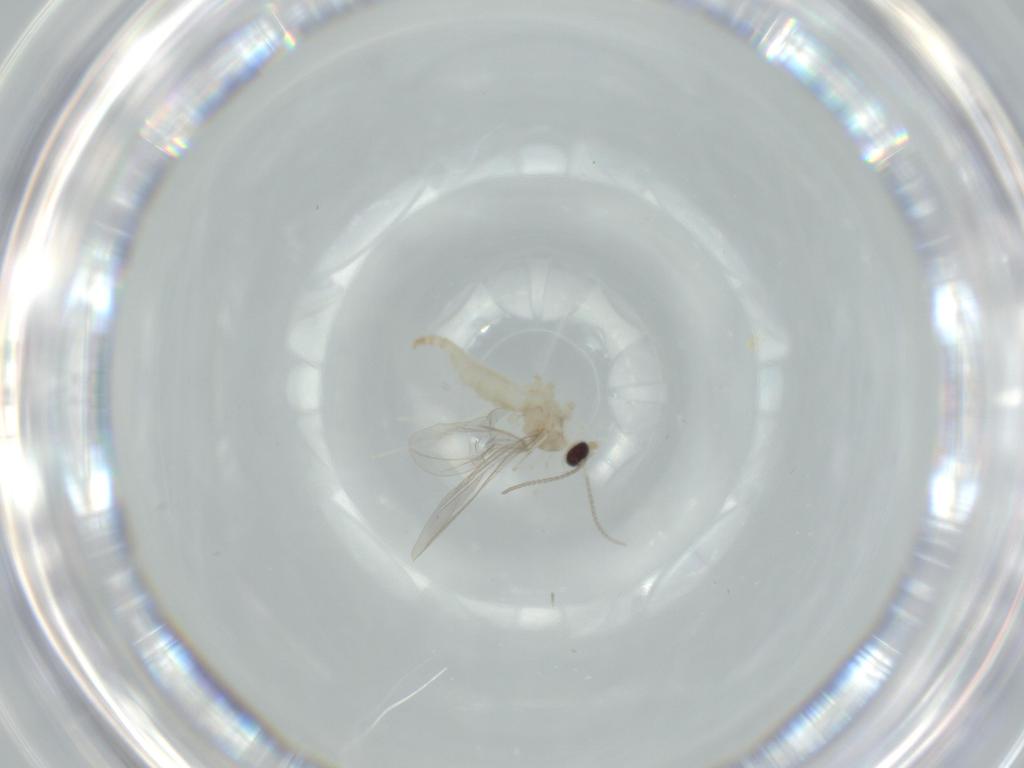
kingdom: Animalia
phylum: Arthropoda
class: Insecta
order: Diptera
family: Cecidomyiidae
